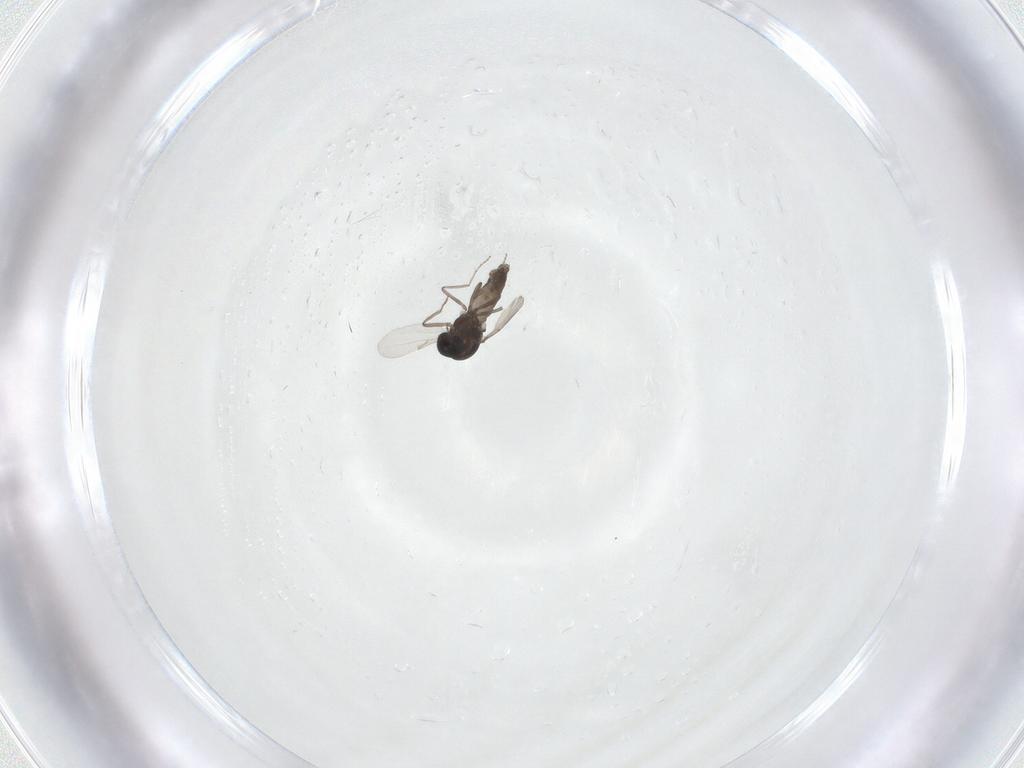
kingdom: Animalia
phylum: Arthropoda
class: Insecta
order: Diptera
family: Ceratopogonidae
